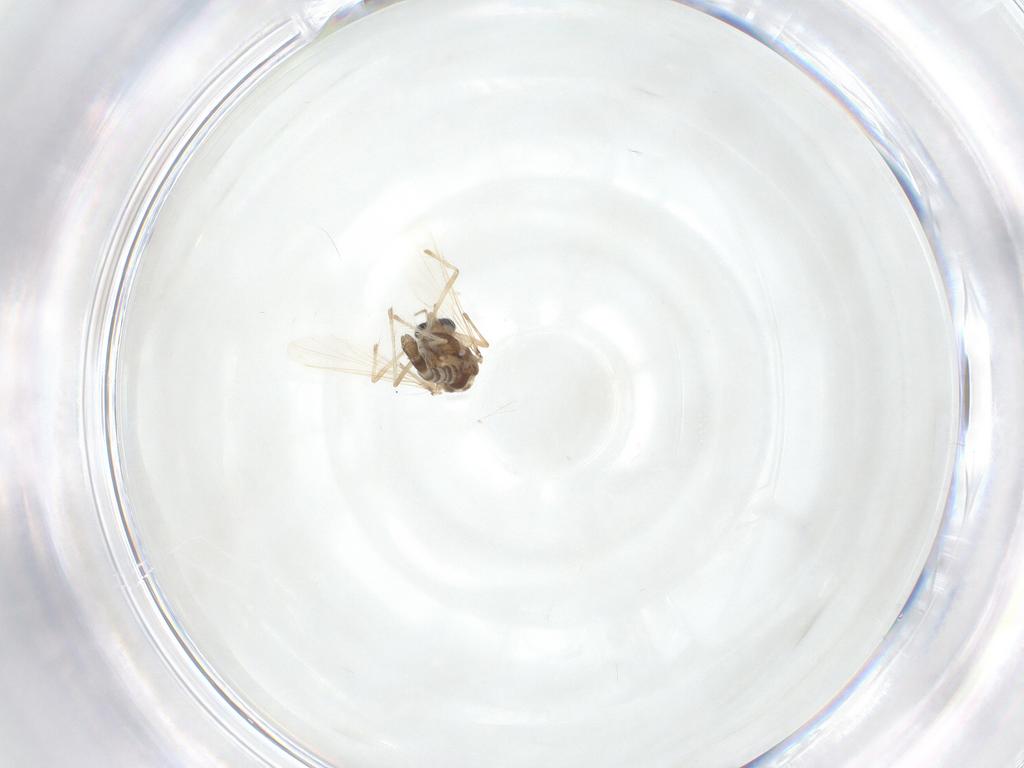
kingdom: Animalia
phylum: Arthropoda
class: Insecta
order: Diptera
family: Chironomidae
